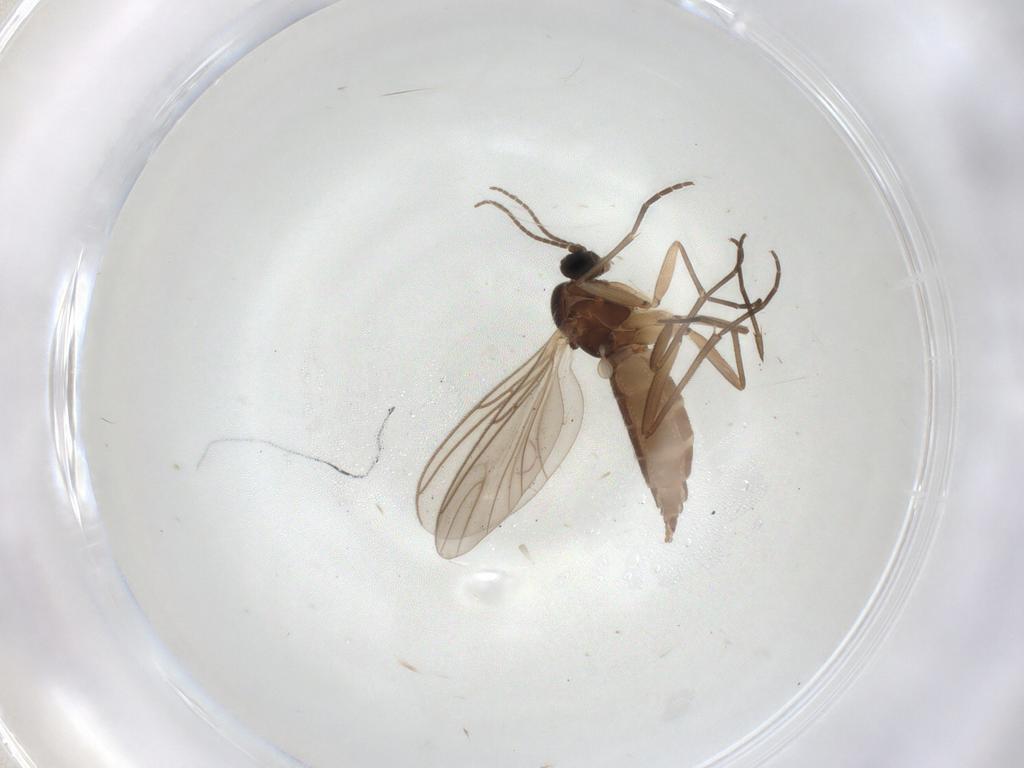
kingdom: Animalia
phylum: Arthropoda
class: Insecta
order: Diptera
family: Sciaridae
